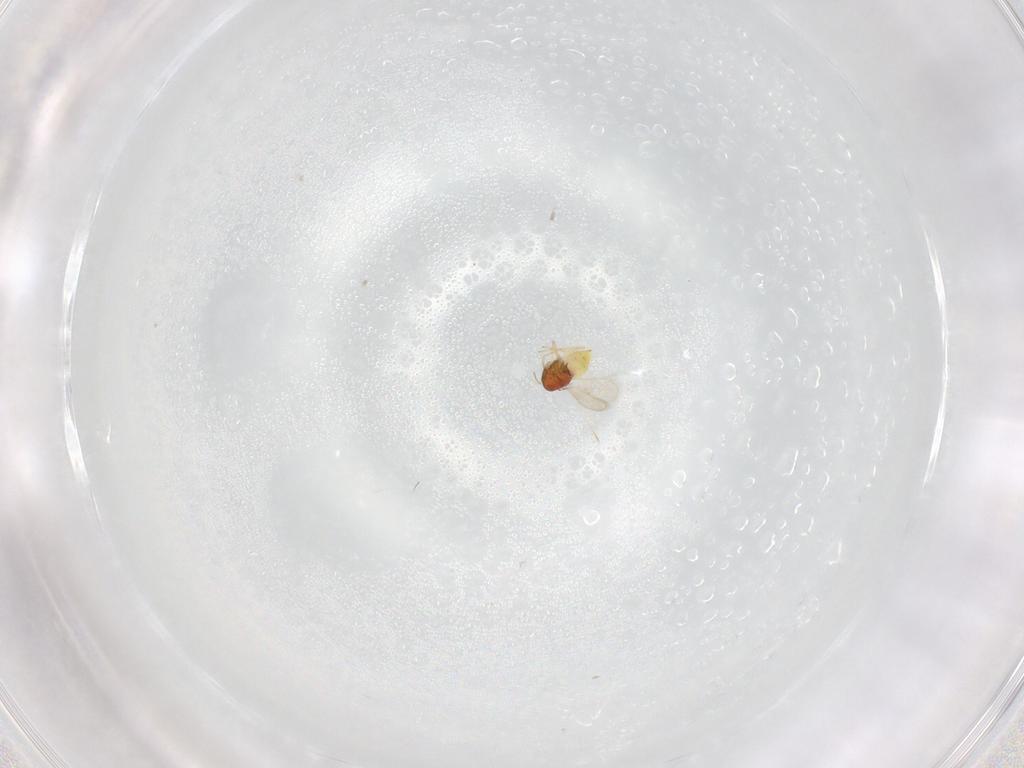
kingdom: Animalia
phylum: Arthropoda
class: Insecta
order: Hymenoptera
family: Aphelinidae
